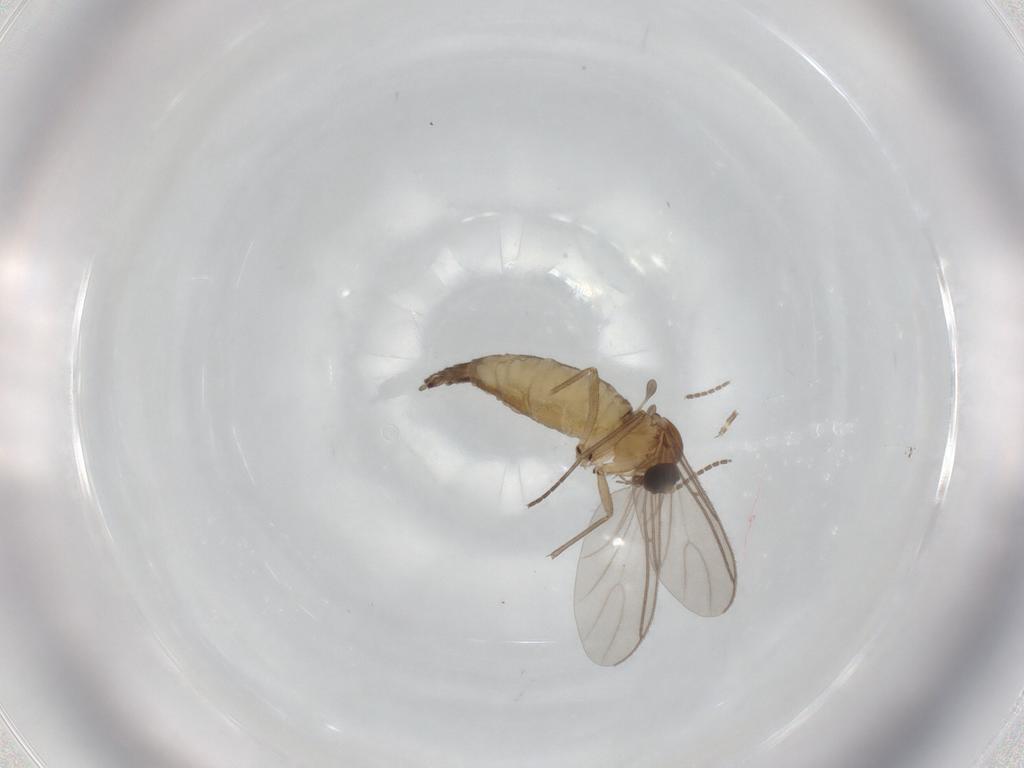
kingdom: Animalia
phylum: Arthropoda
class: Insecta
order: Diptera
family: Sciaridae
